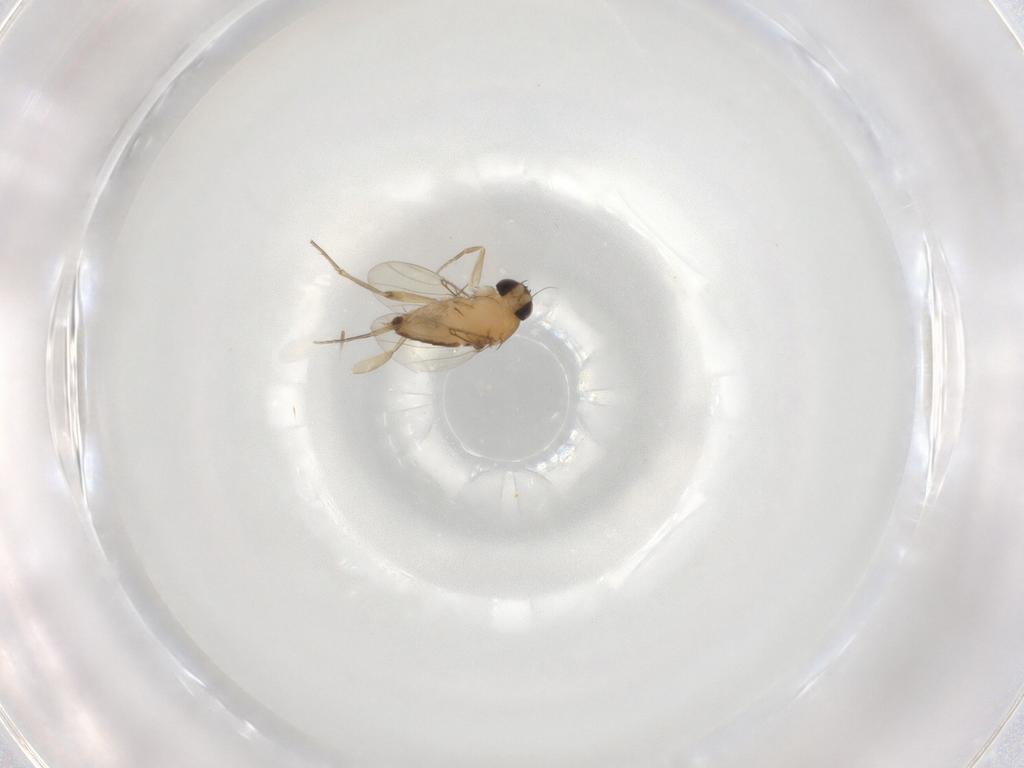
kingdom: Animalia
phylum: Arthropoda
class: Insecta
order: Diptera
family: Phoridae
